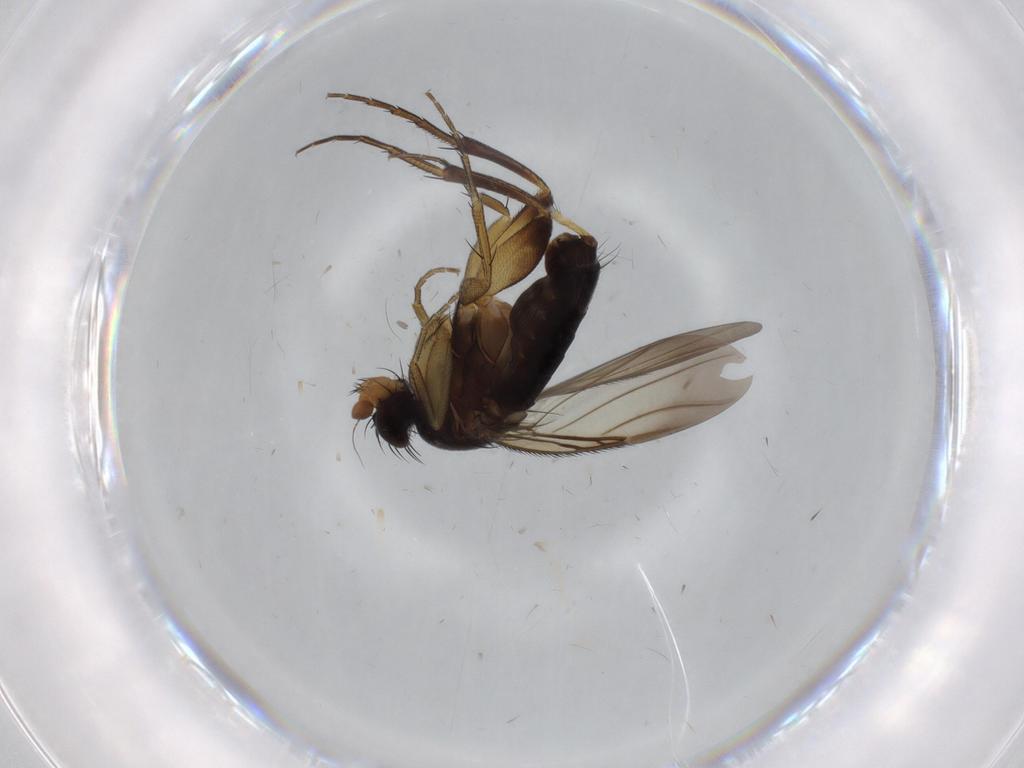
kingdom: Animalia
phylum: Arthropoda
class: Insecta
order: Diptera
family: Phoridae
